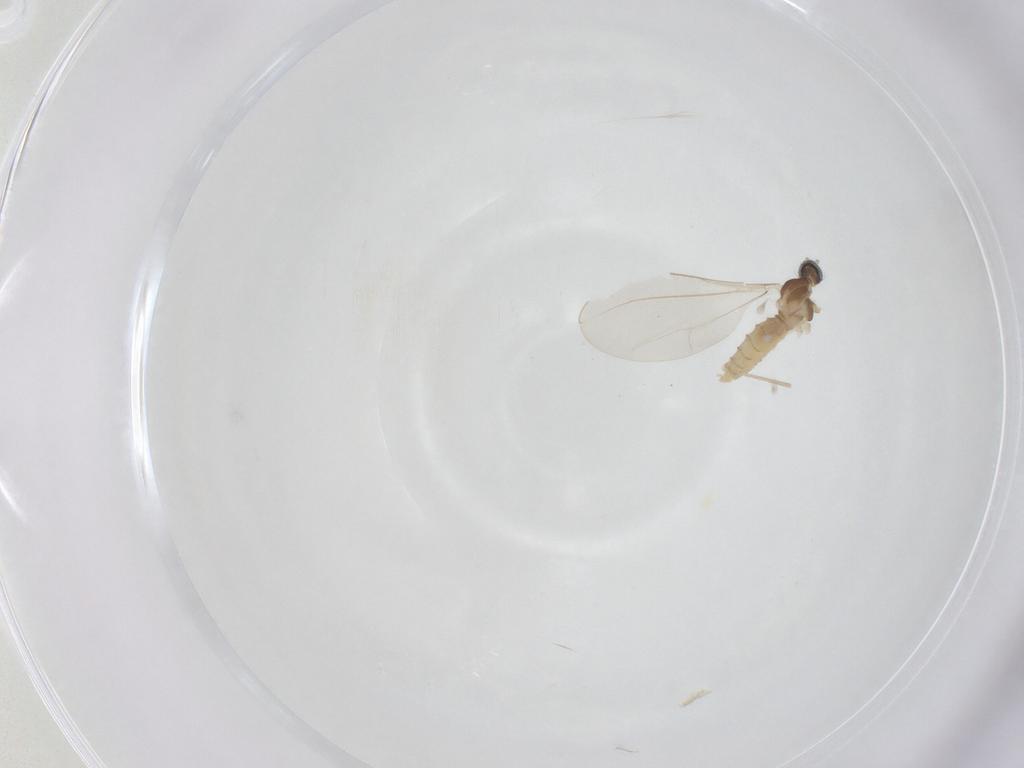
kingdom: Animalia
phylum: Arthropoda
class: Insecta
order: Diptera
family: Cecidomyiidae
